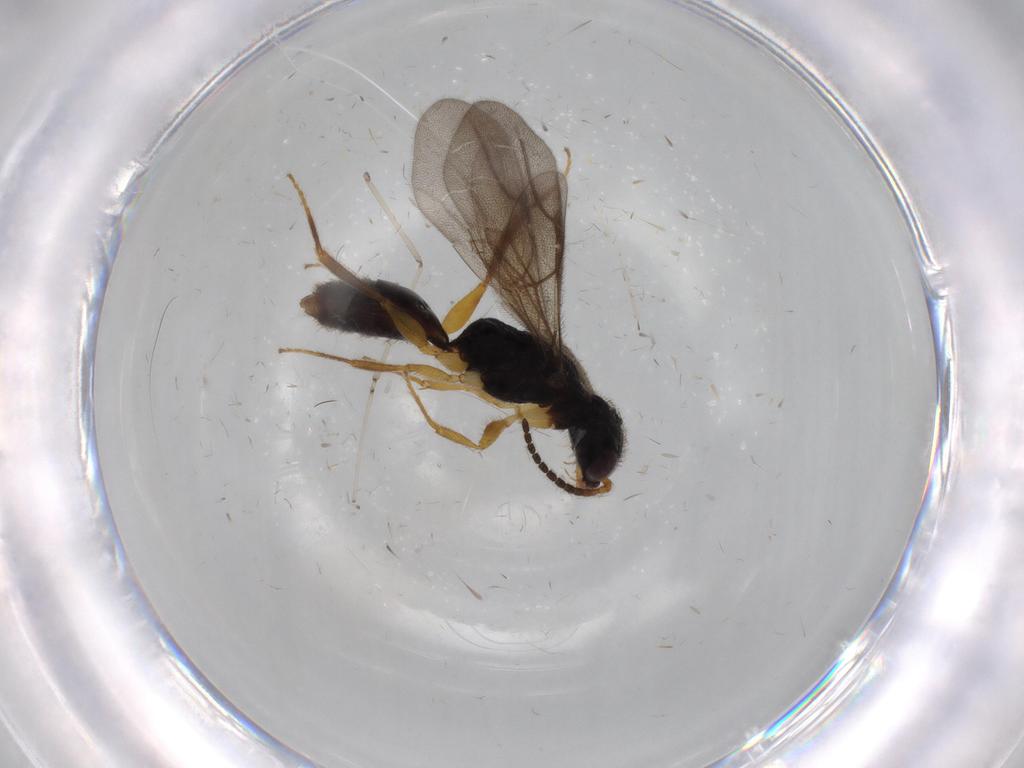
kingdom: Animalia
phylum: Arthropoda
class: Insecta
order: Hymenoptera
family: Bethylidae
